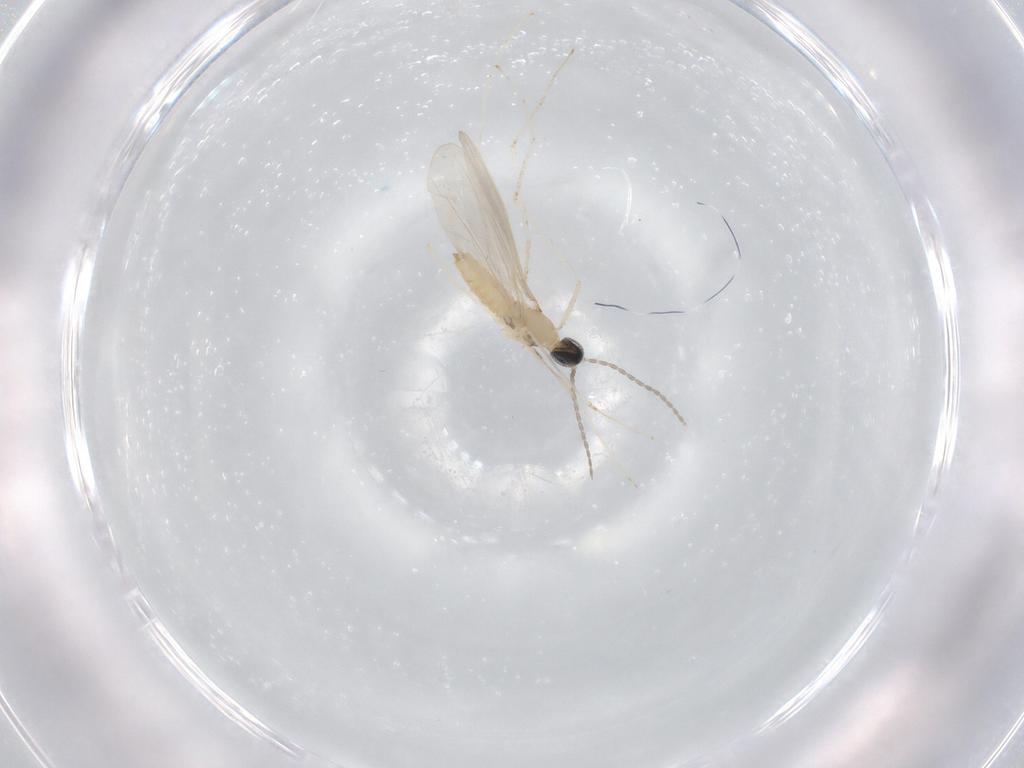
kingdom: Animalia
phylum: Arthropoda
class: Insecta
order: Diptera
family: Cecidomyiidae
